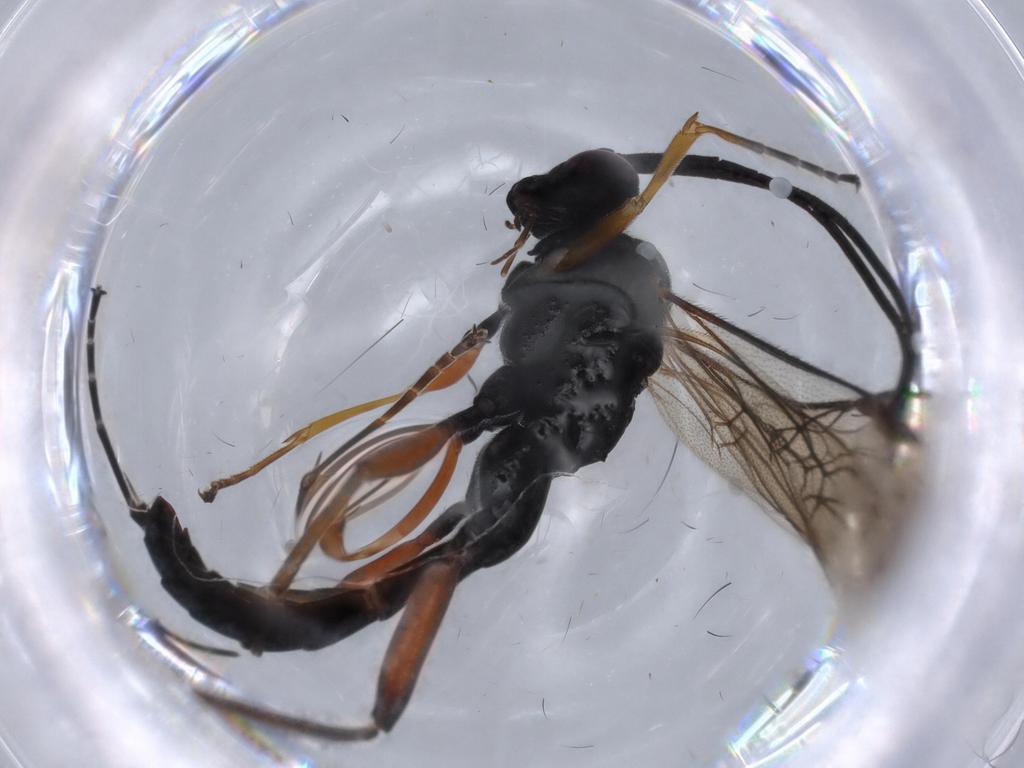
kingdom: Animalia
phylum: Arthropoda
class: Insecta
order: Hymenoptera
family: Ichneumonidae
